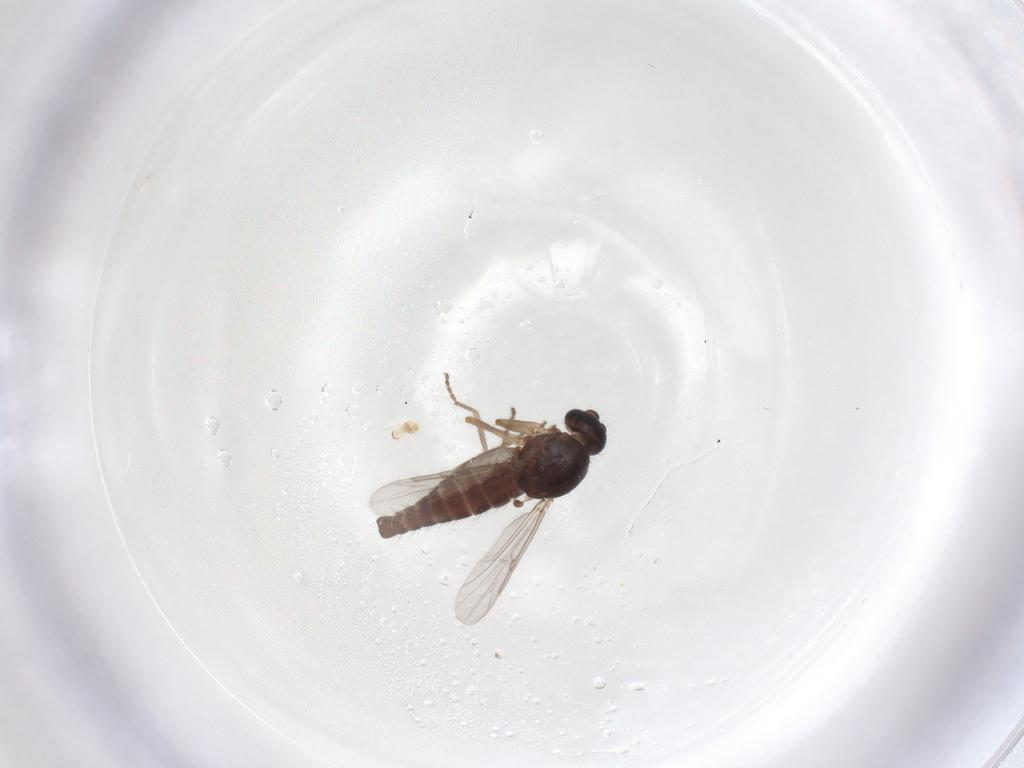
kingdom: Animalia
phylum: Arthropoda
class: Insecta
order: Diptera
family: Ceratopogonidae
